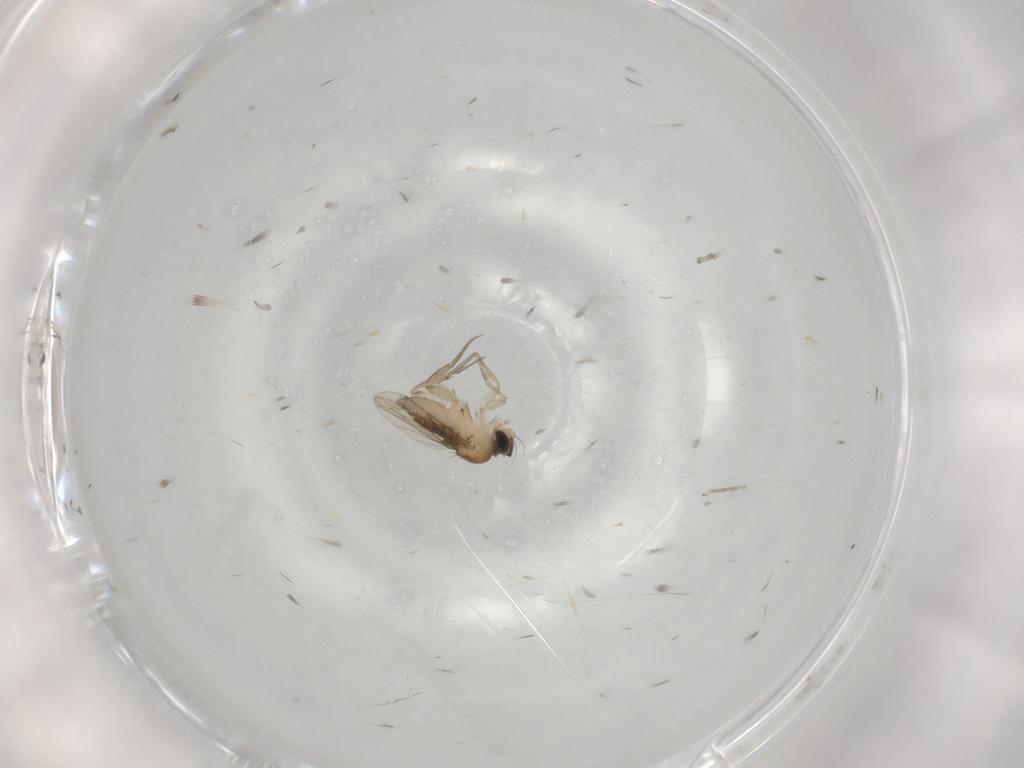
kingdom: Animalia
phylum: Arthropoda
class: Insecta
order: Diptera
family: Phoridae
